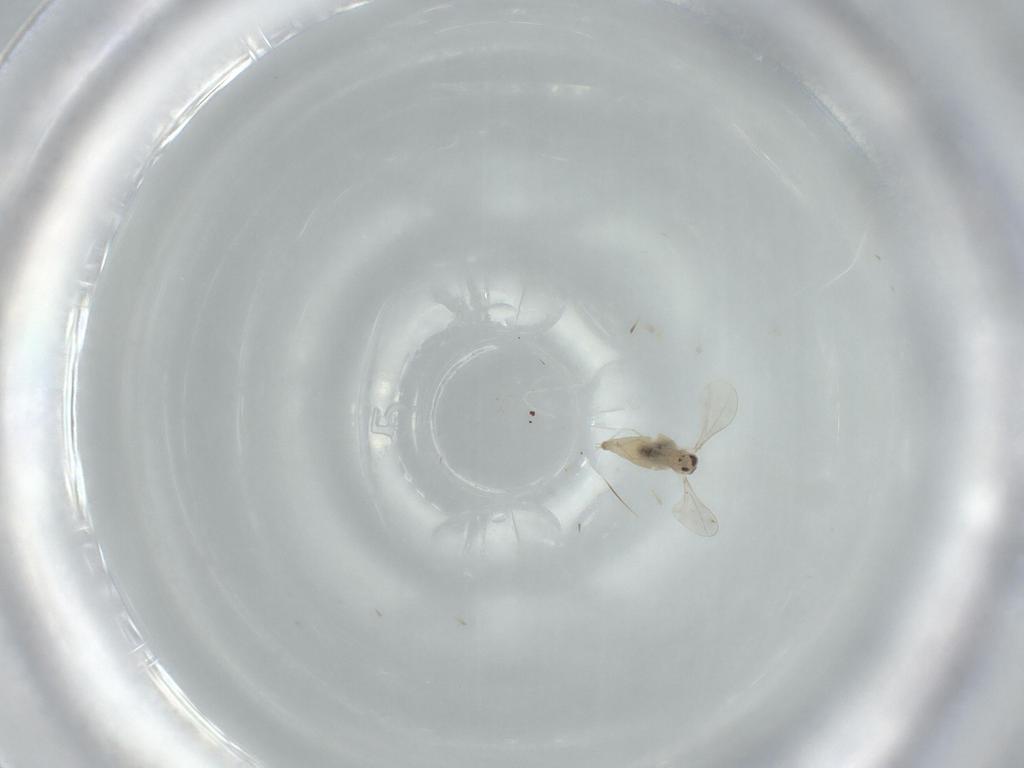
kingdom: Animalia
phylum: Arthropoda
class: Insecta
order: Diptera
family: Cecidomyiidae
